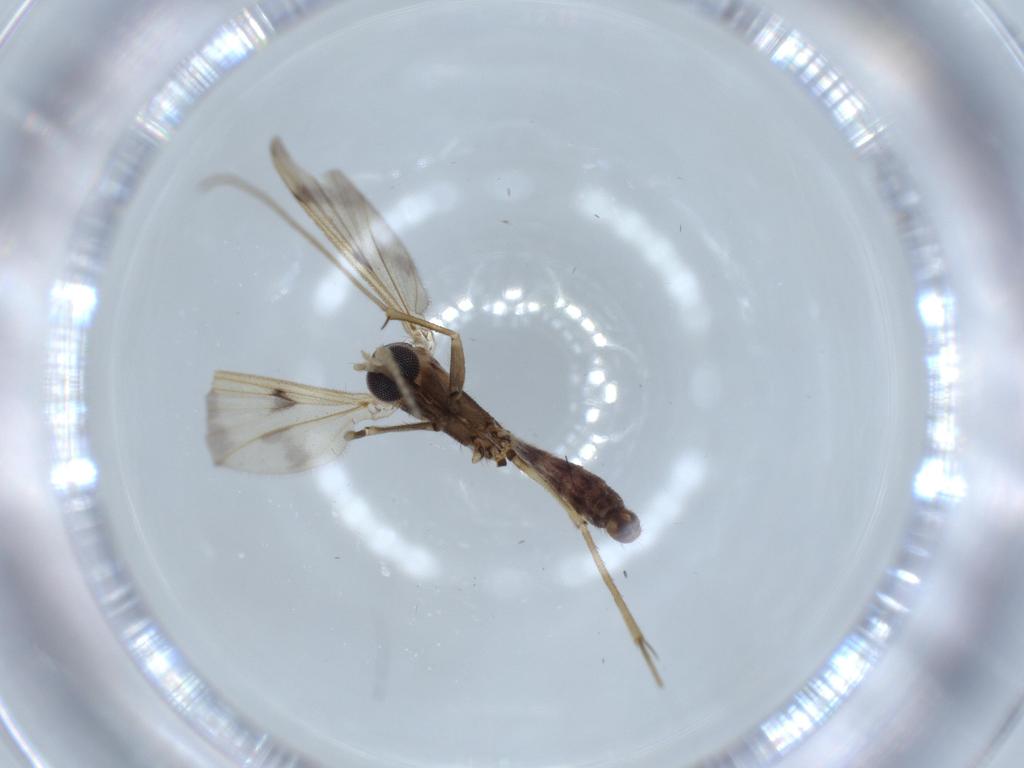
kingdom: Animalia
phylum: Arthropoda
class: Insecta
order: Diptera
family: Chironomidae
